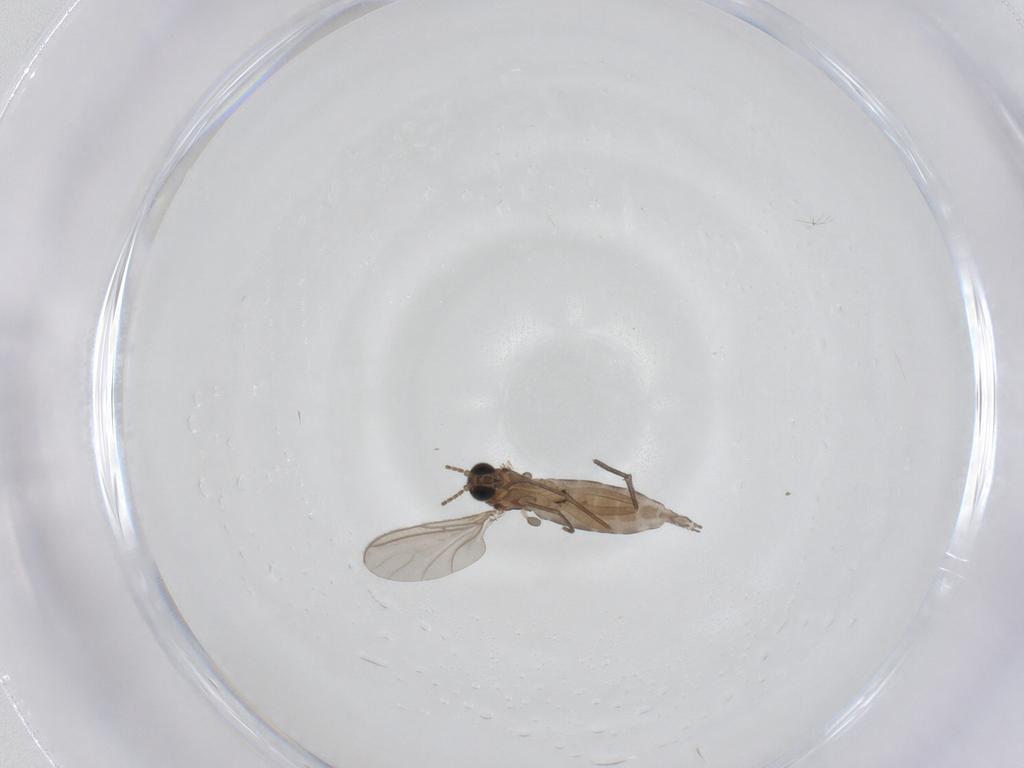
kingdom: Animalia
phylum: Arthropoda
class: Insecta
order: Diptera
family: Sciaridae
